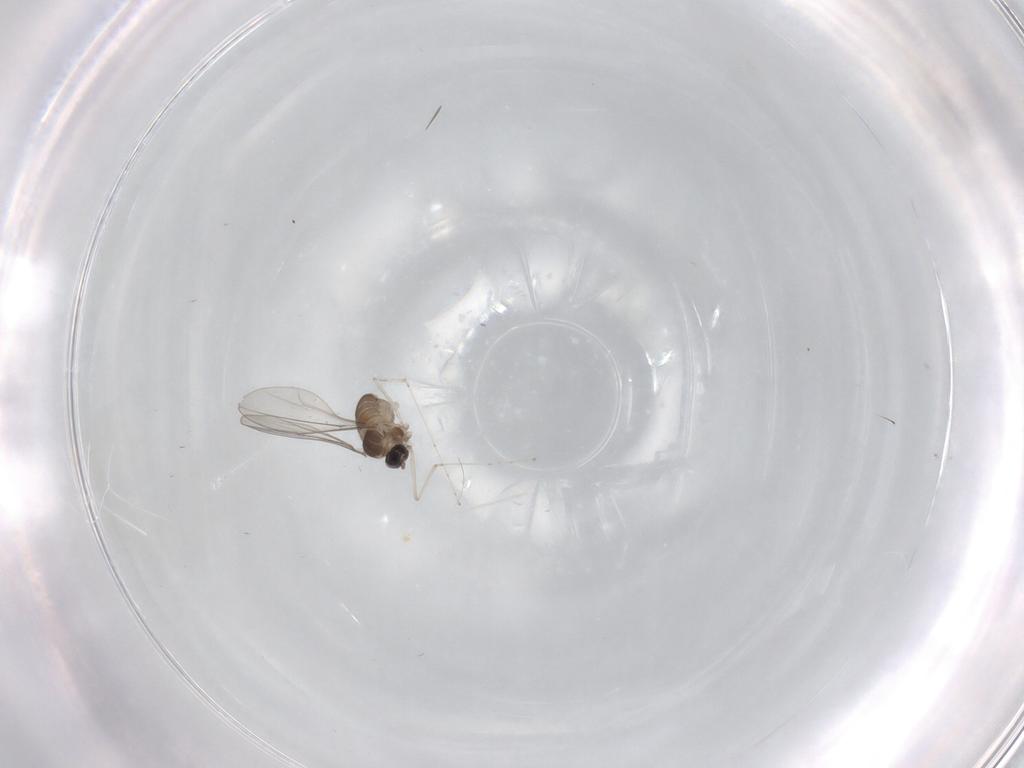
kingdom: Animalia
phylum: Arthropoda
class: Insecta
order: Diptera
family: Cecidomyiidae
